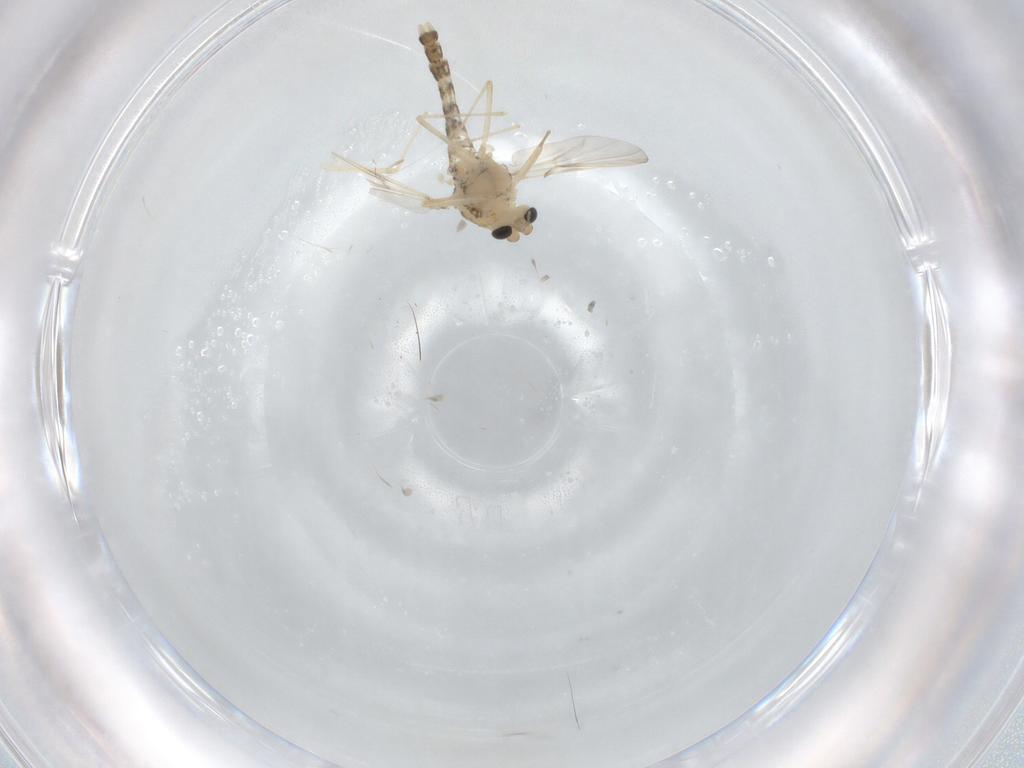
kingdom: Animalia
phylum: Arthropoda
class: Insecta
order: Diptera
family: Chironomidae
